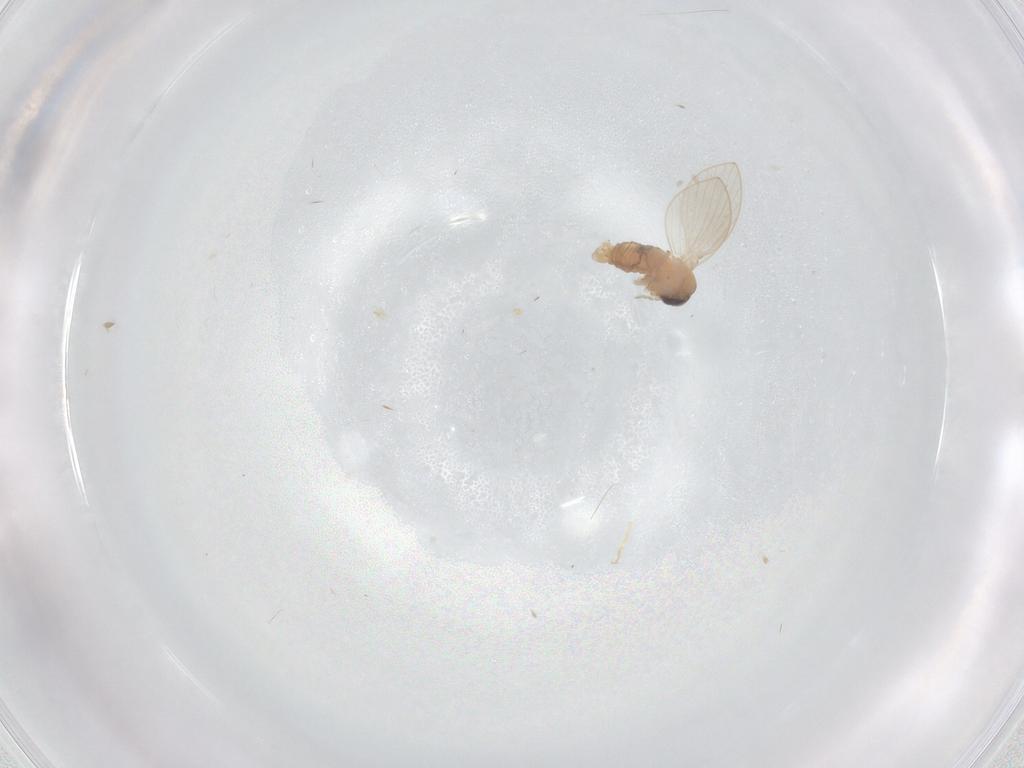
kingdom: Animalia
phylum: Arthropoda
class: Insecta
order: Diptera
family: Psychodidae
